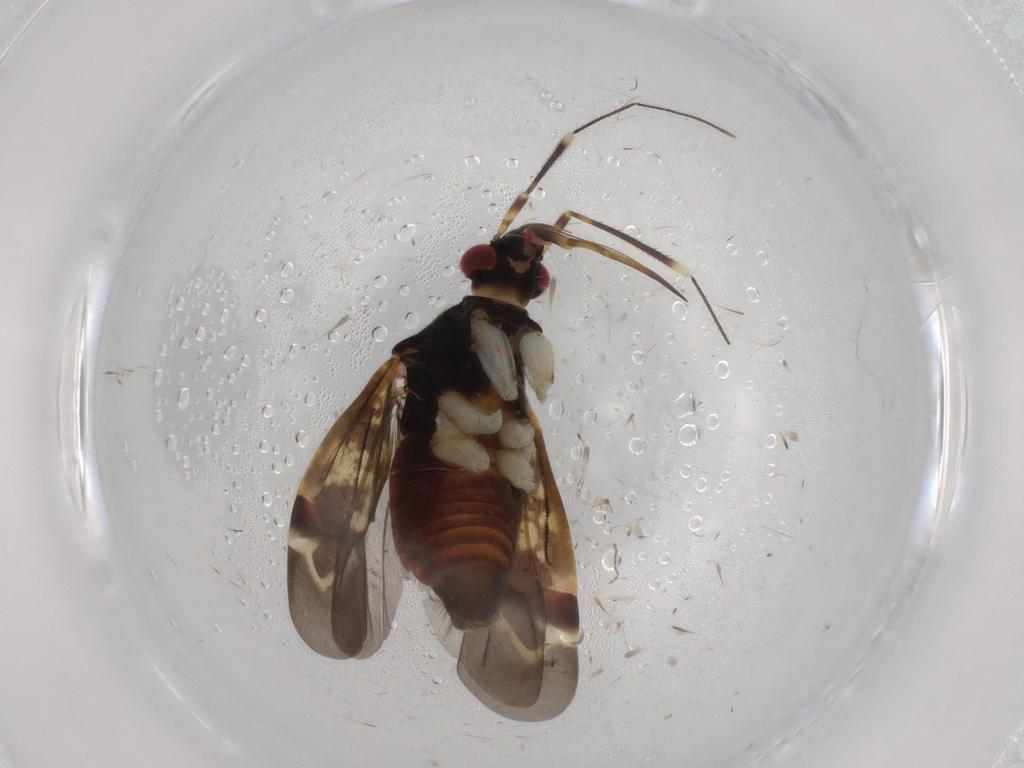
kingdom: Animalia
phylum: Arthropoda
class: Insecta
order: Hemiptera
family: Miridae
